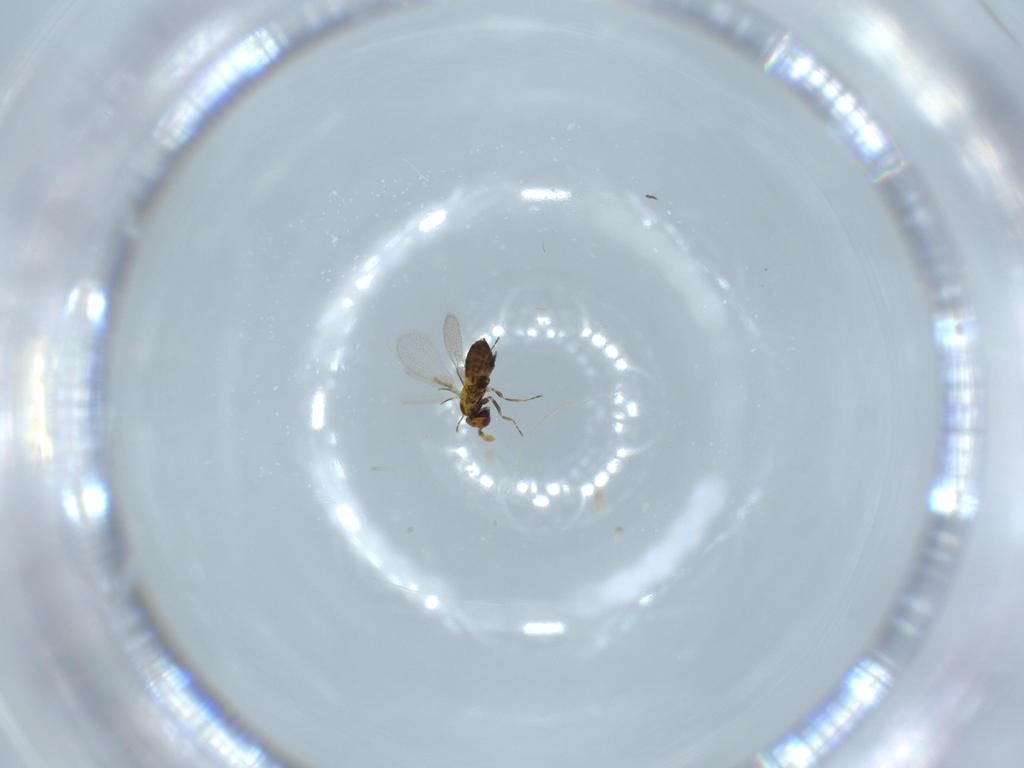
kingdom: Animalia
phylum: Arthropoda
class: Insecta
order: Hymenoptera
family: Trichogrammatidae
